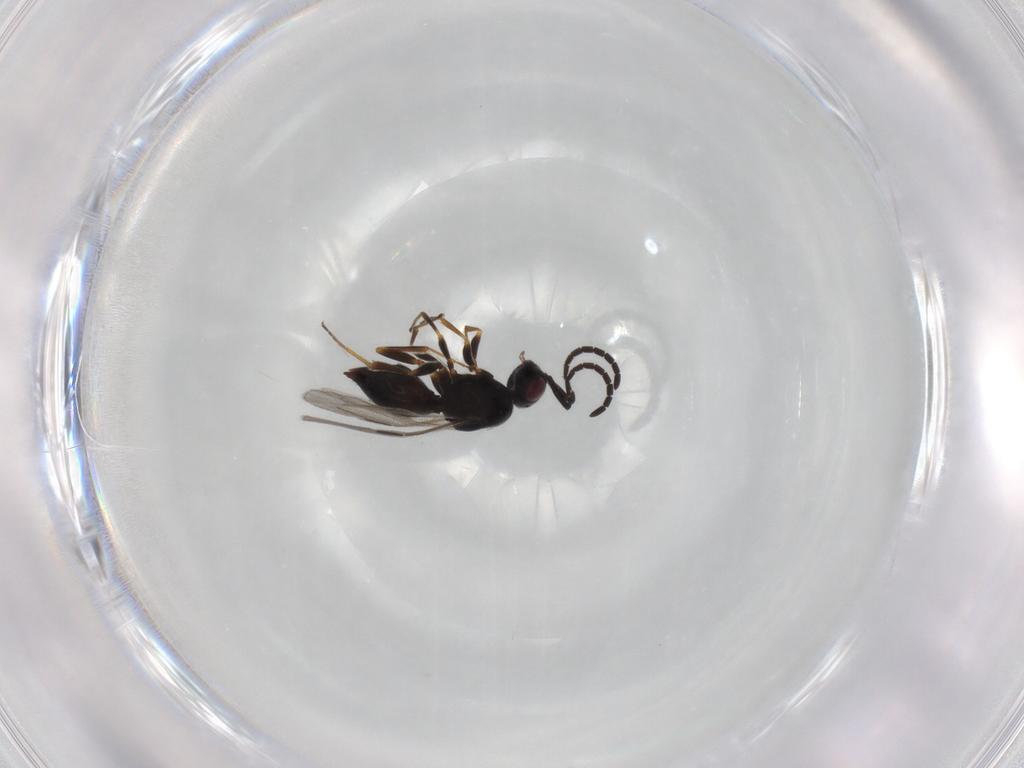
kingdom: Animalia
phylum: Arthropoda
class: Insecta
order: Hymenoptera
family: Megaspilidae
